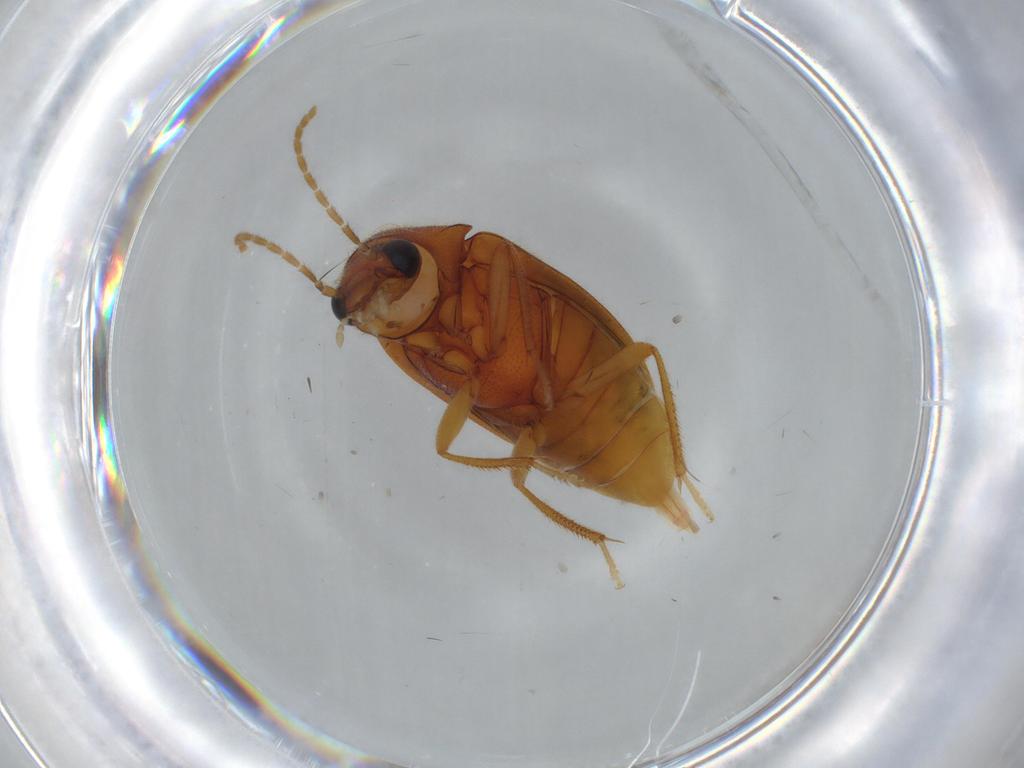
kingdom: Animalia
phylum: Arthropoda
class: Insecta
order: Coleoptera
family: Ptilodactylidae
